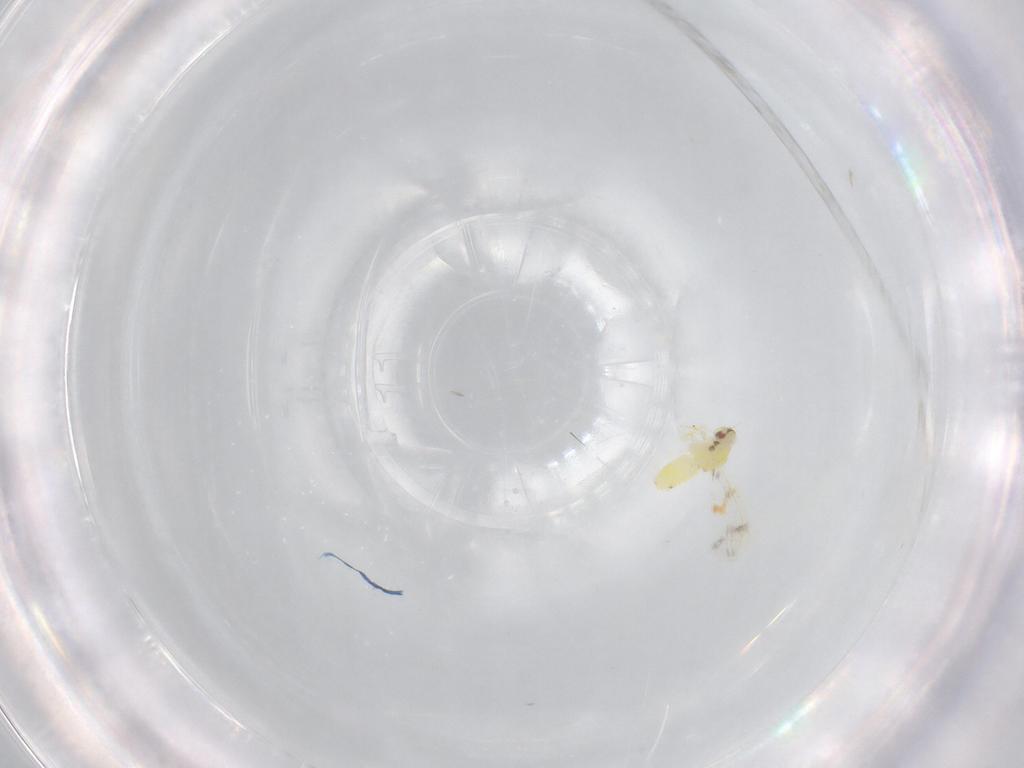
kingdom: Animalia
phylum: Arthropoda
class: Insecta
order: Hemiptera
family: Aleyrodidae
